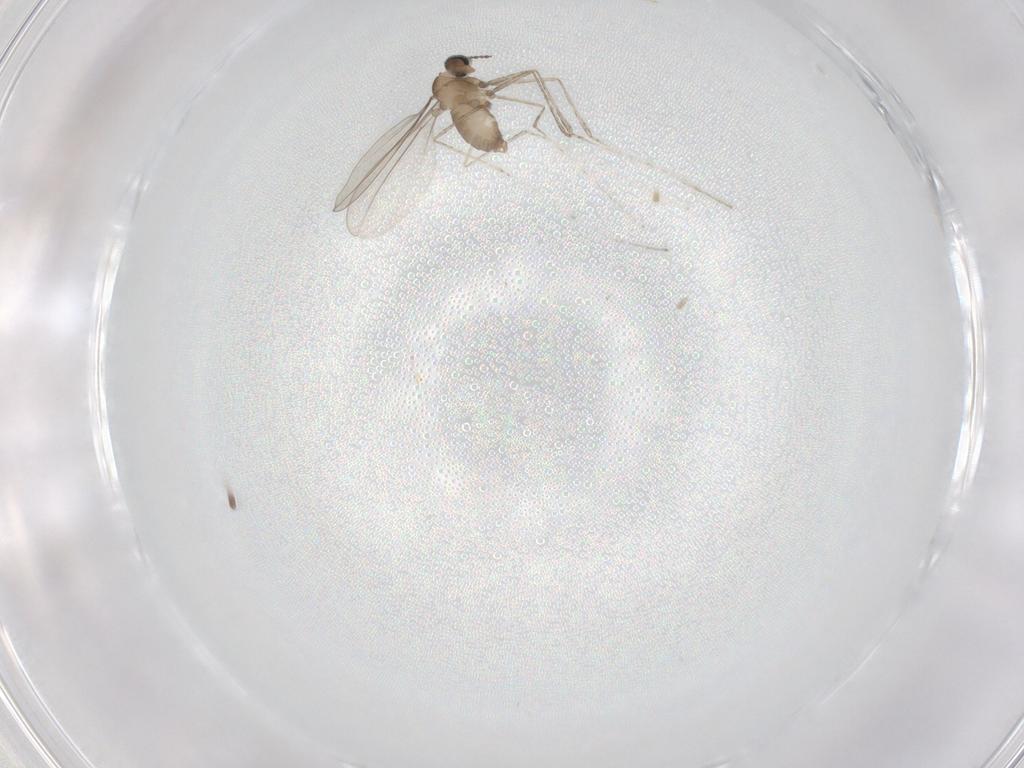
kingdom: Animalia
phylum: Arthropoda
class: Insecta
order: Diptera
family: Cecidomyiidae
